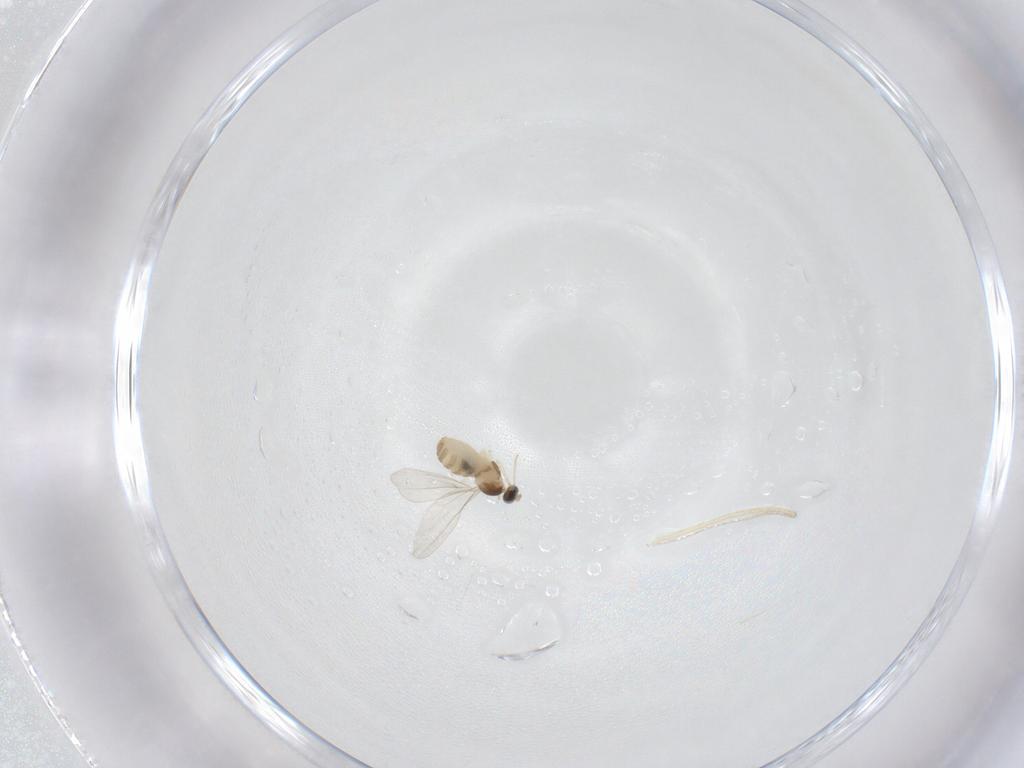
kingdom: Animalia
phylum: Arthropoda
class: Insecta
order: Diptera
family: Cecidomyiidae
